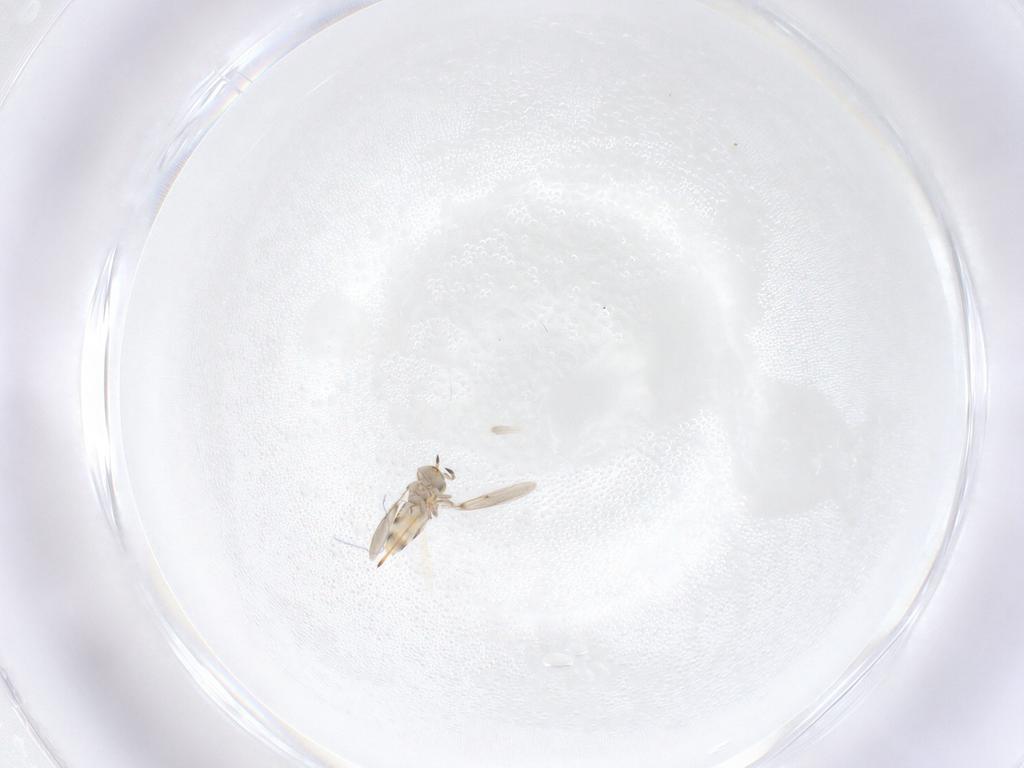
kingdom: Animalia
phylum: Arthropoda
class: Insecta
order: Hymenoptera
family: Aphelinidae
